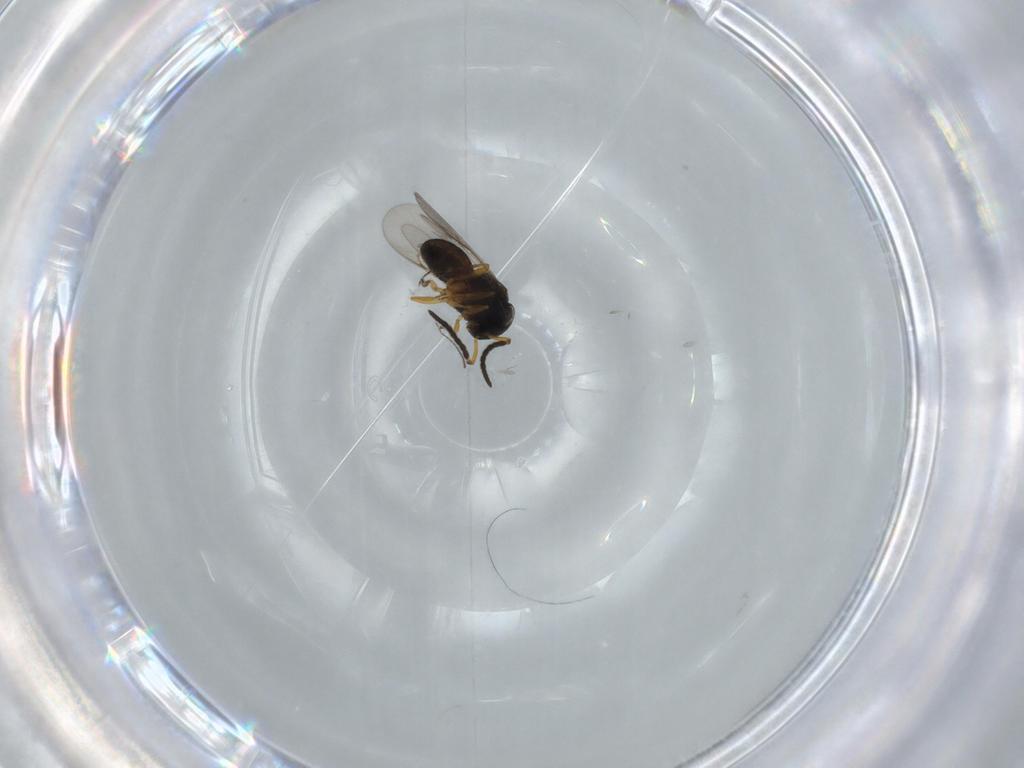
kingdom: Animalia
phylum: Arthropoda
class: Insecta
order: Hymenoptera
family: Scelionidae
